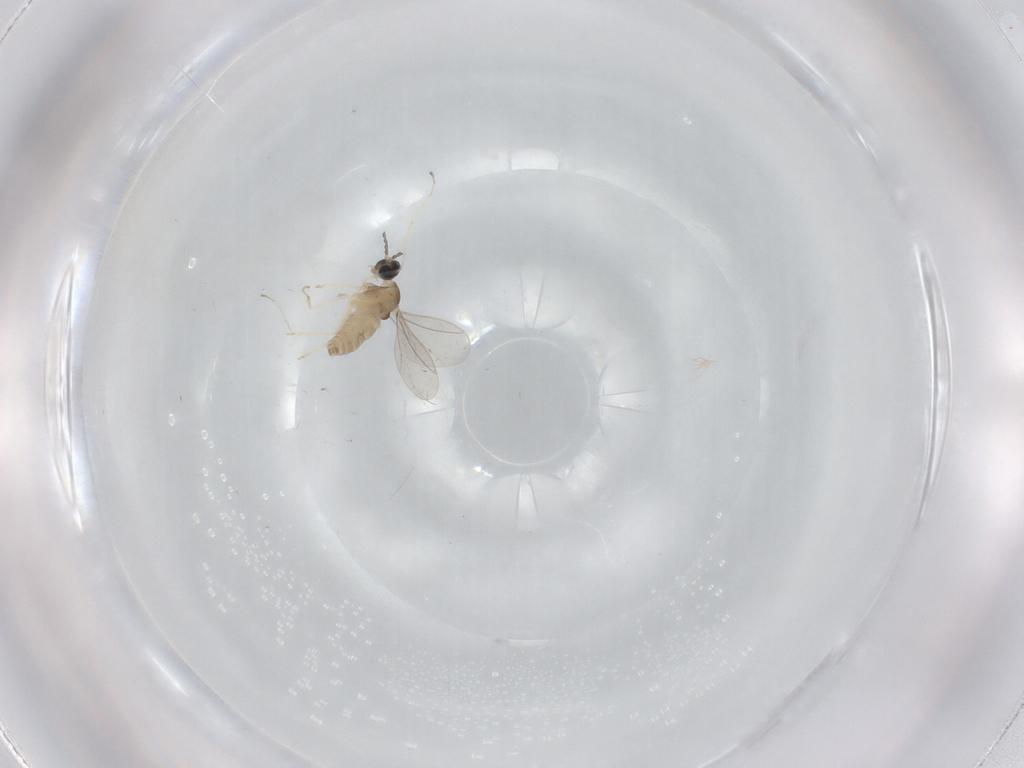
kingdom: Animalia
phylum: Arthropoda
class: Insecta
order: Diptera
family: Cecidomyiidae
